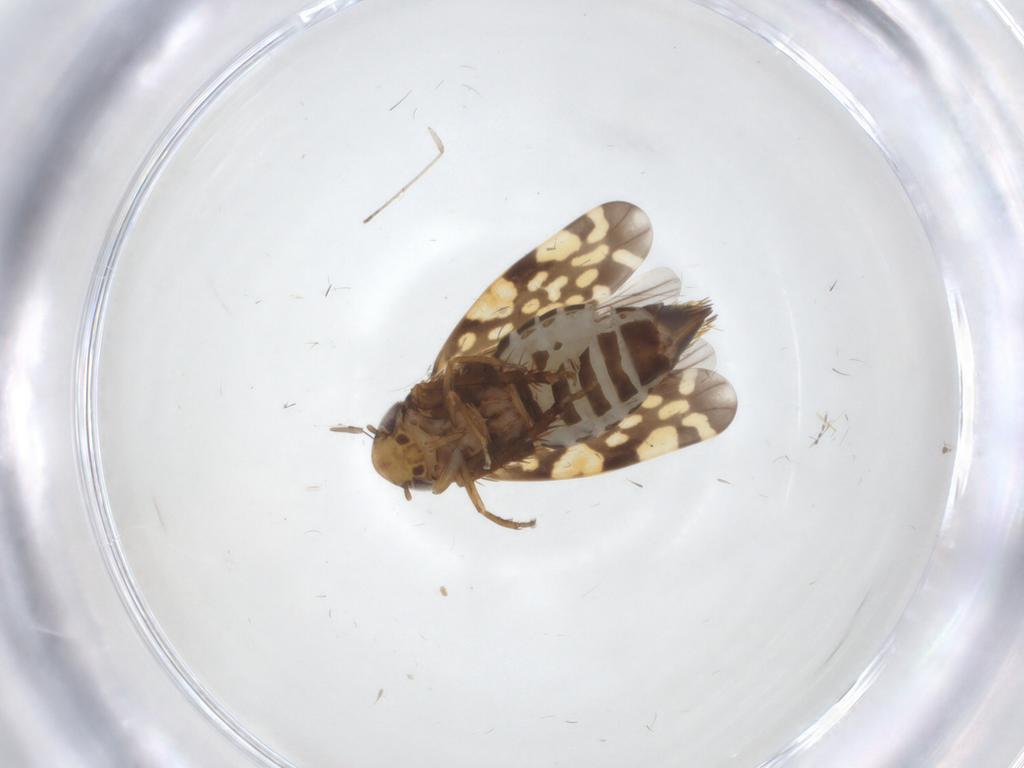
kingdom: Animalia
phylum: Arthropoda
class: Insecta
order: Hemiptera
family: Cicadellidae
